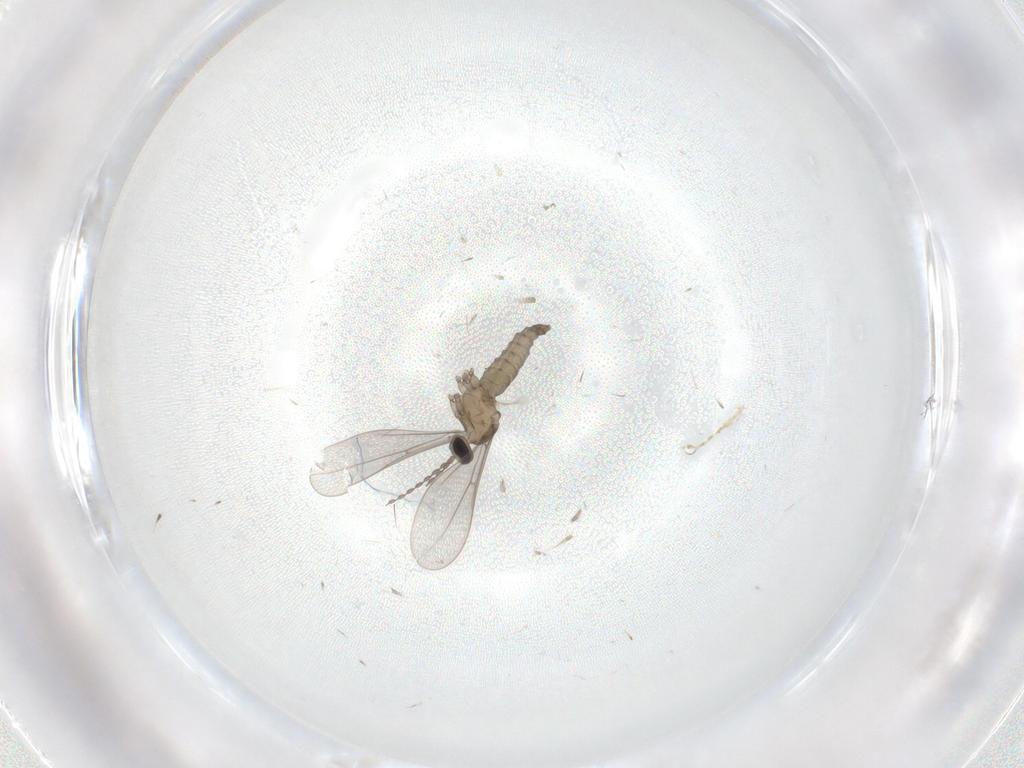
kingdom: Animalia
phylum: Arthropoda
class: Insecta
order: Diptera
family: Cecidomyiidae
